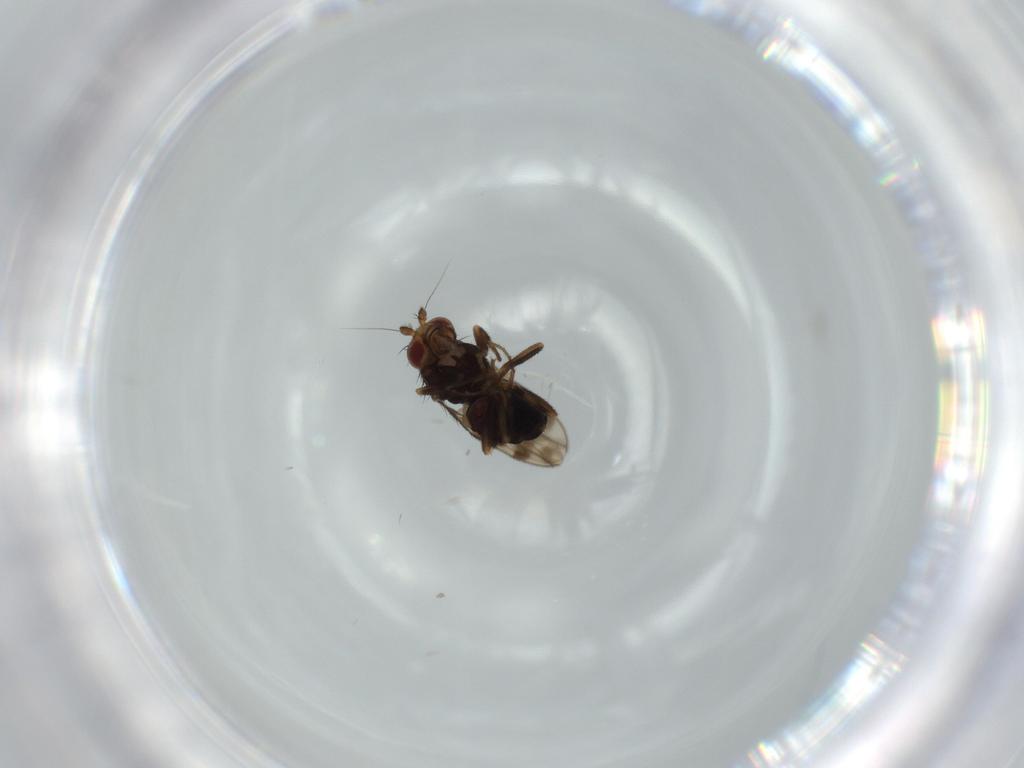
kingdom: Animalia
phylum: Arthropoda
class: Insecta
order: Diptera
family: Sphaeroceridae
